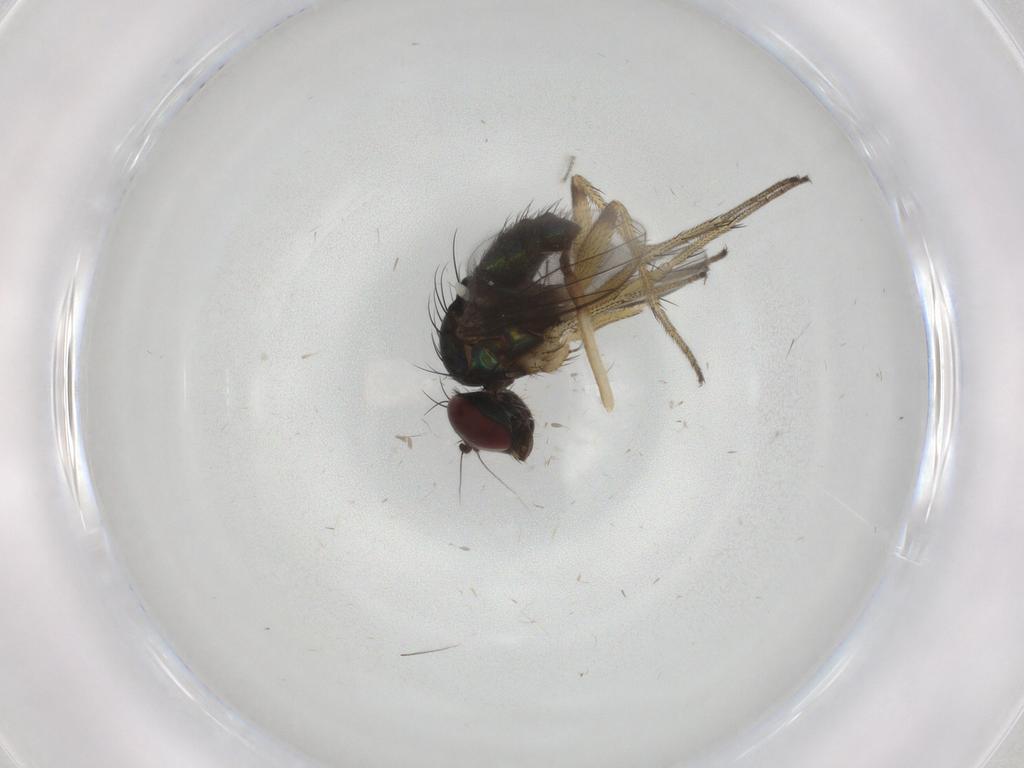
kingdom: Animalia
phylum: Arthropoda
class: Insecta
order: Diptera
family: Dolichopodidae
